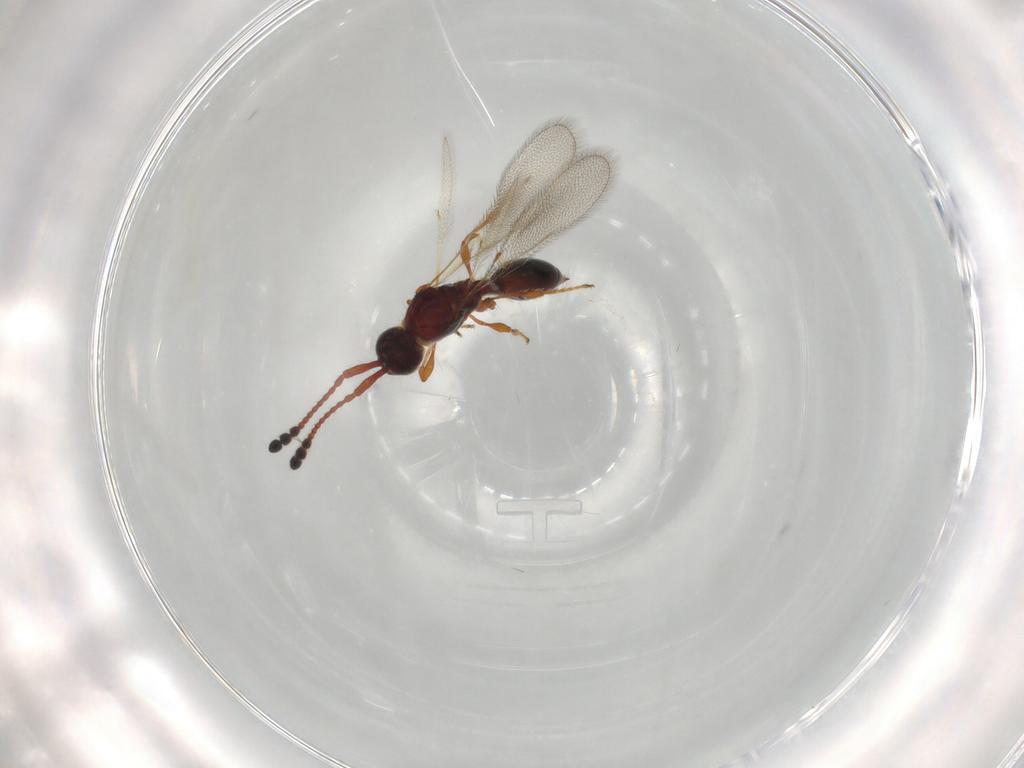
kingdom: Animalia
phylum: Arthropoda
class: Insecta
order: Hymenoptera
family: Diapriidae
